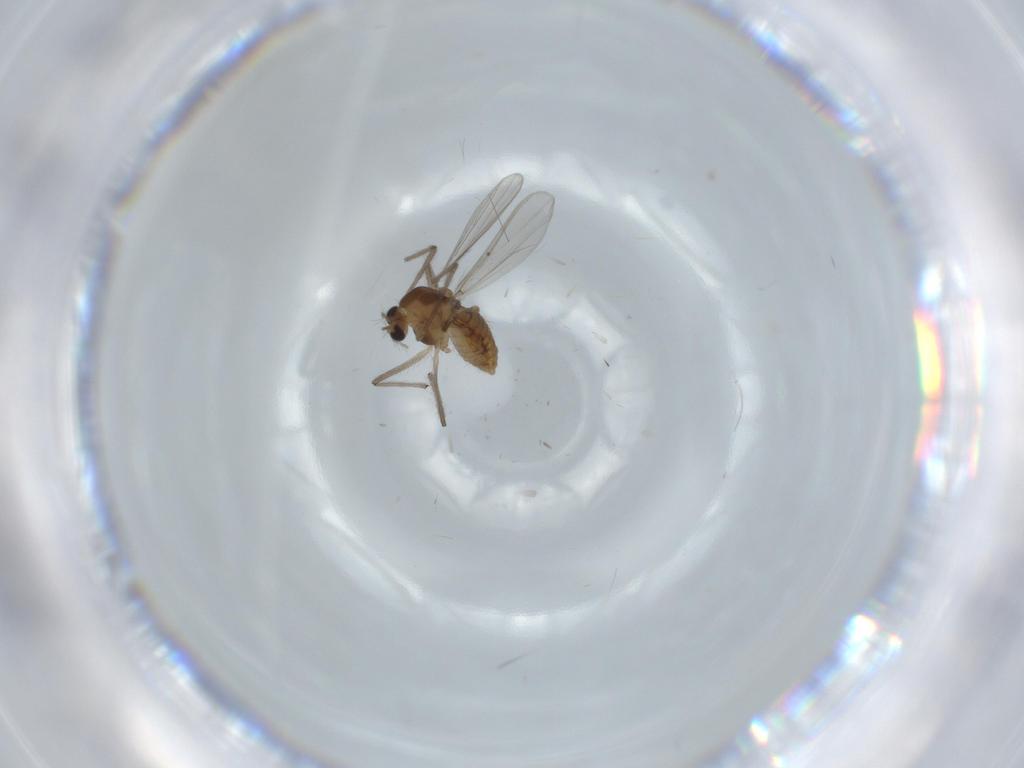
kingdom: Animalia
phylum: Arthropoda
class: Insecta
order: Diptera
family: Chironomidae
